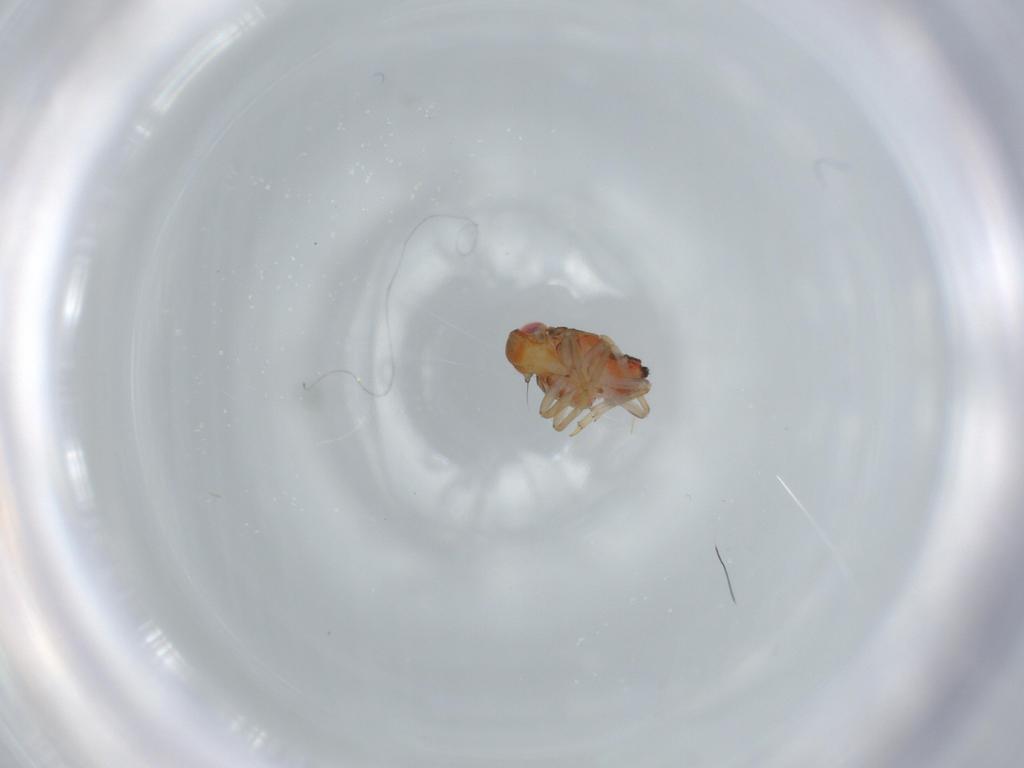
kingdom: Animalia
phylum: Arthropoda
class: Insecta
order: Hemiptera
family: Issidae
